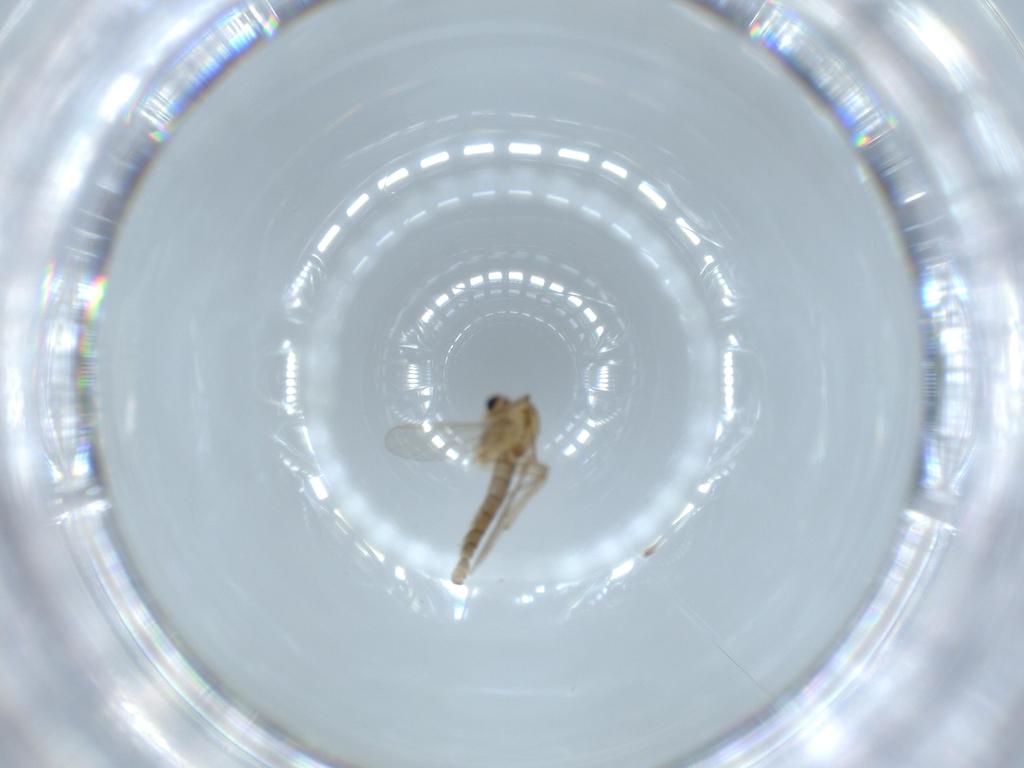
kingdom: Animalia
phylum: Arthropoda
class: Insecta
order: Diptera
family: Chironomidae
